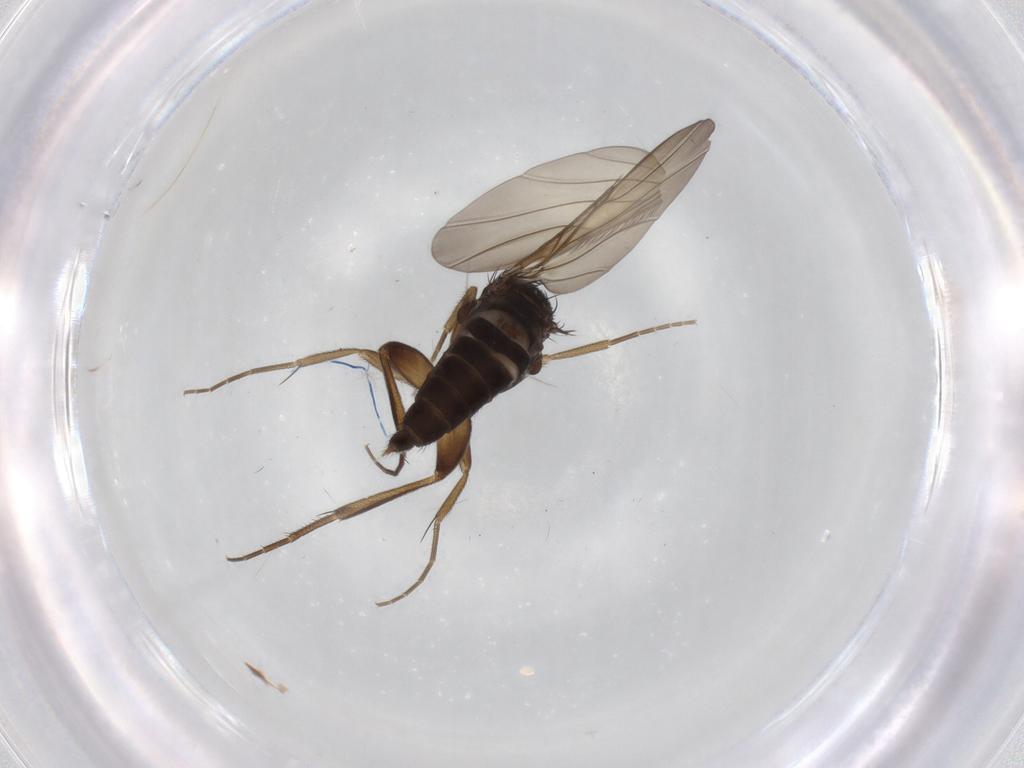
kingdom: Animalia
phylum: Arthropoda
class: Insecta
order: Diptera
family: Phoridae
